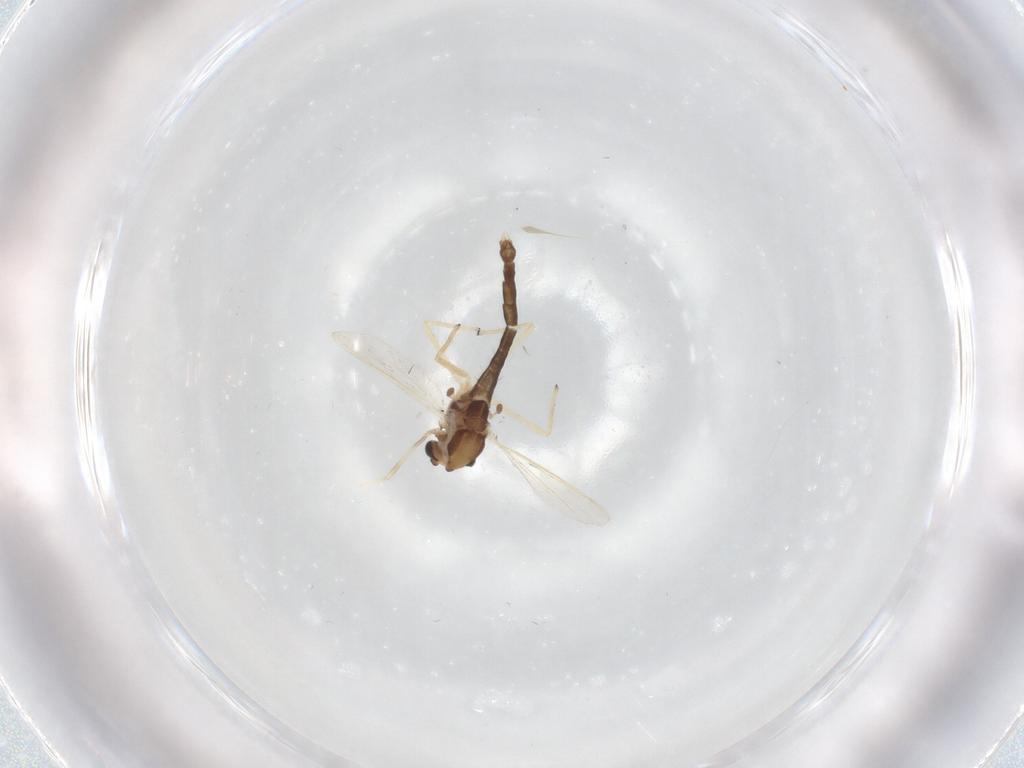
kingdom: Animalia
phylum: Arthropoda
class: Insecta
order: Diptera
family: Chironomidae
